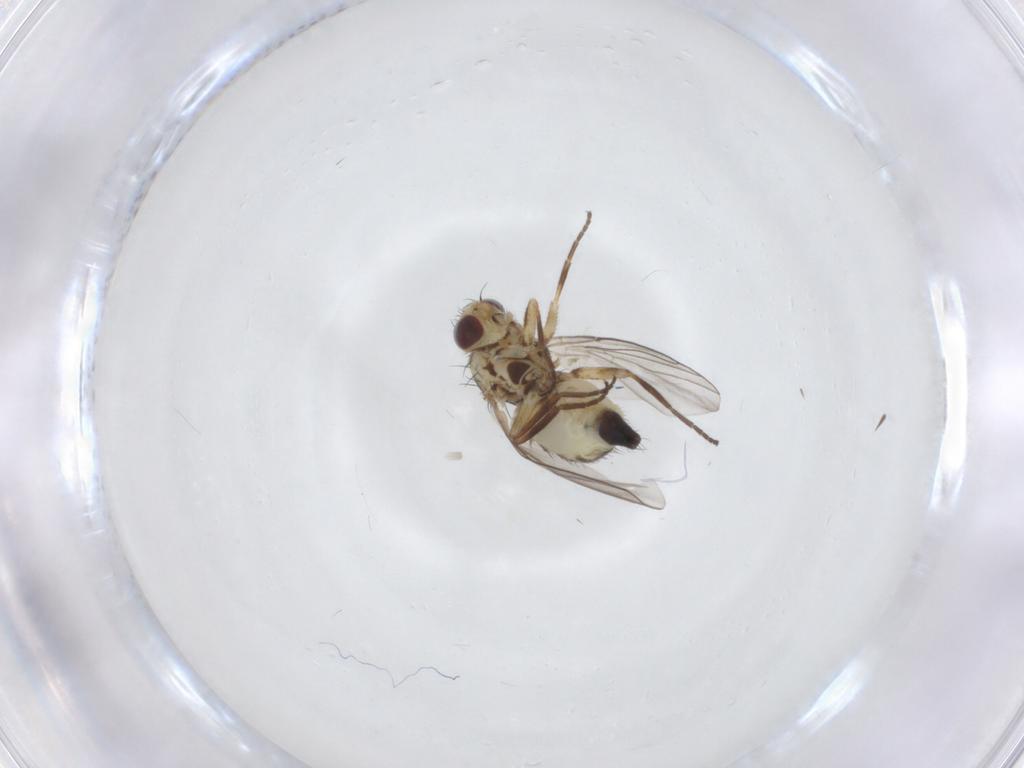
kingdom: Animalia
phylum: Arthropoda
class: Insecta
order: Diptera
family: Agromyzidae
